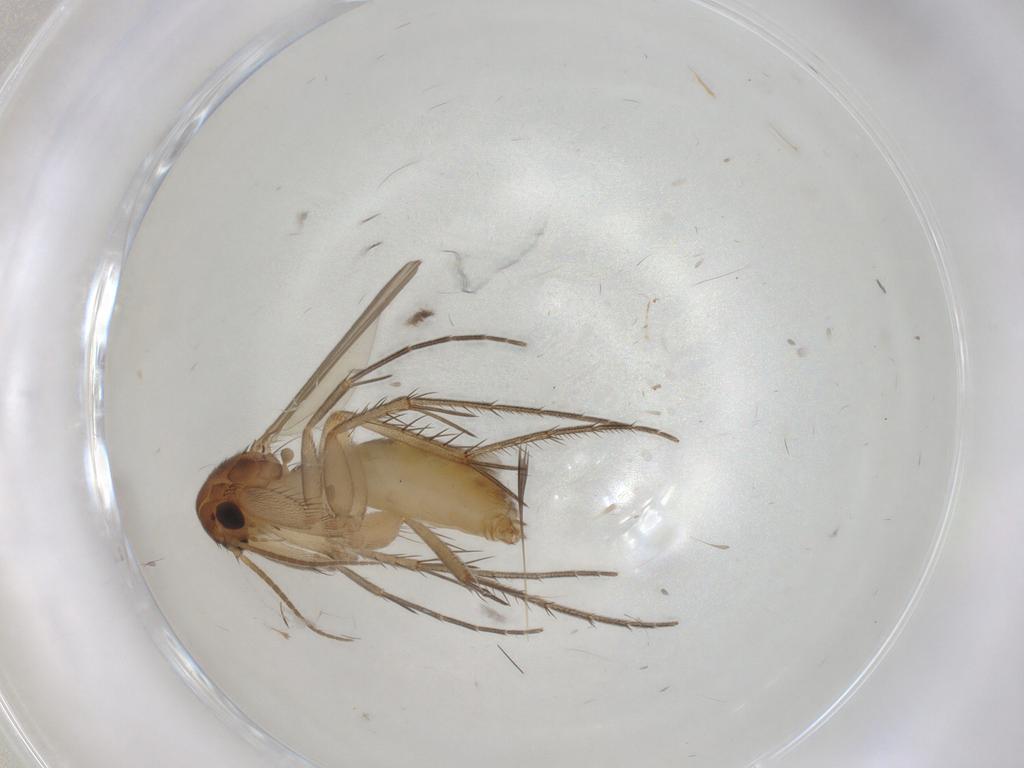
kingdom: Animalia
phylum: Arthropoda
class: Insecta
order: Diptera
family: Mycetophilidae
